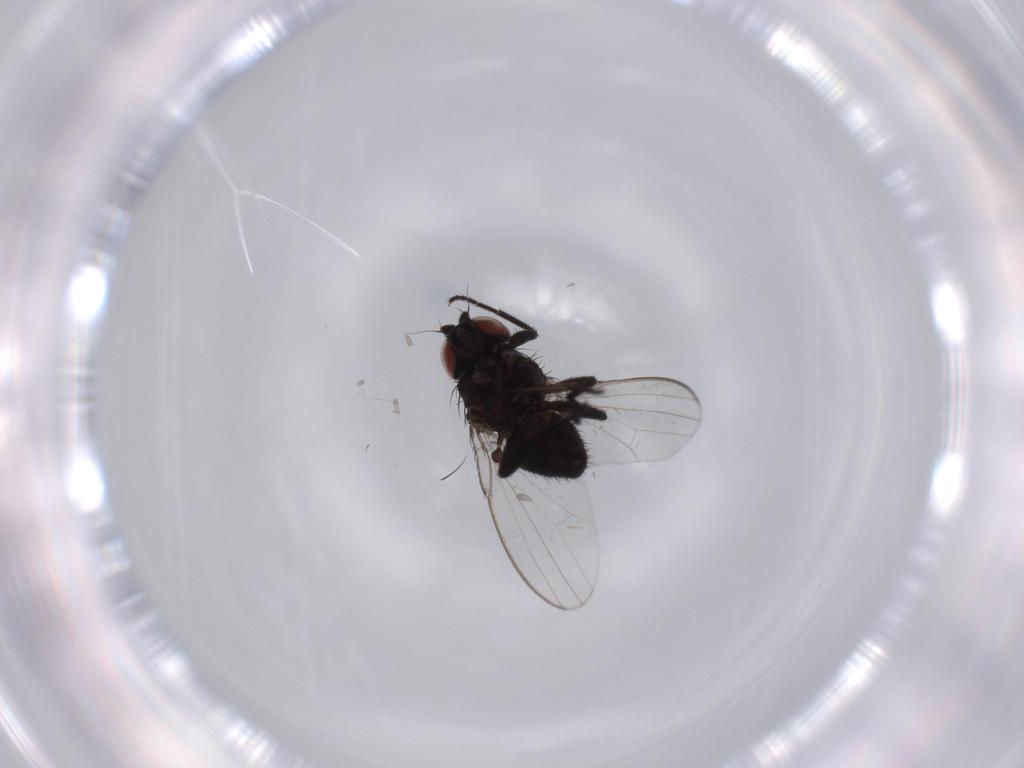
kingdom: Animalia
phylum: Arthropoda
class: Insecta
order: Diptera
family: Milichiidae
